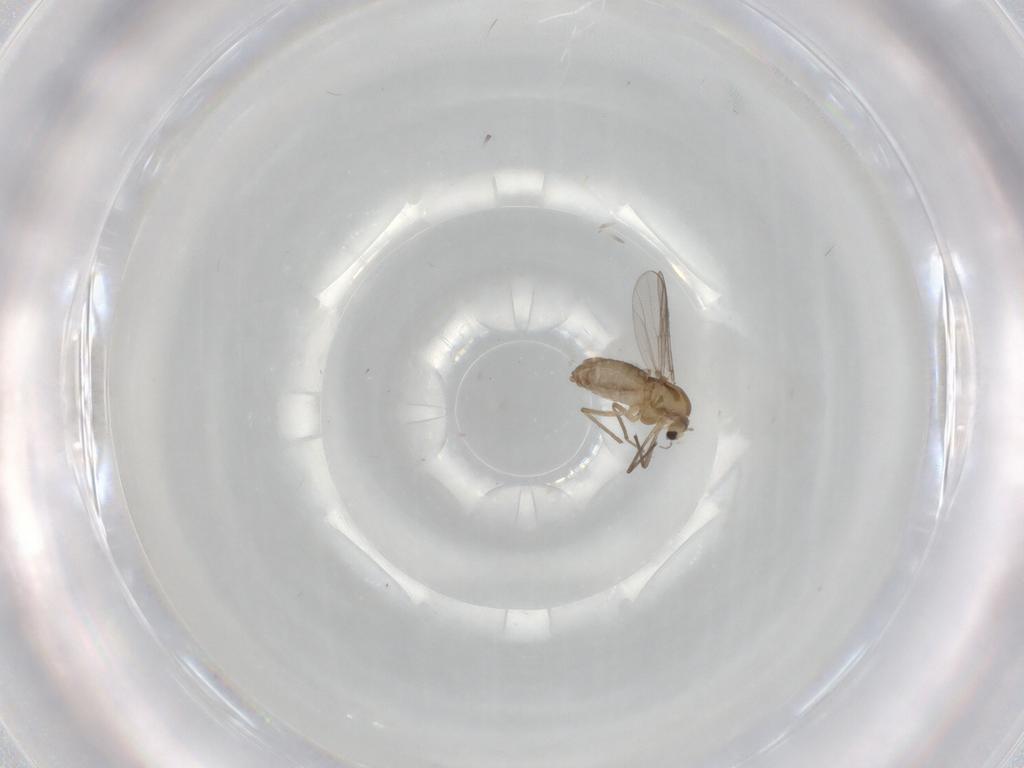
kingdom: Animalia
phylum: Arthropoda
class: Insecta
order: Diptera
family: Chironomidae
